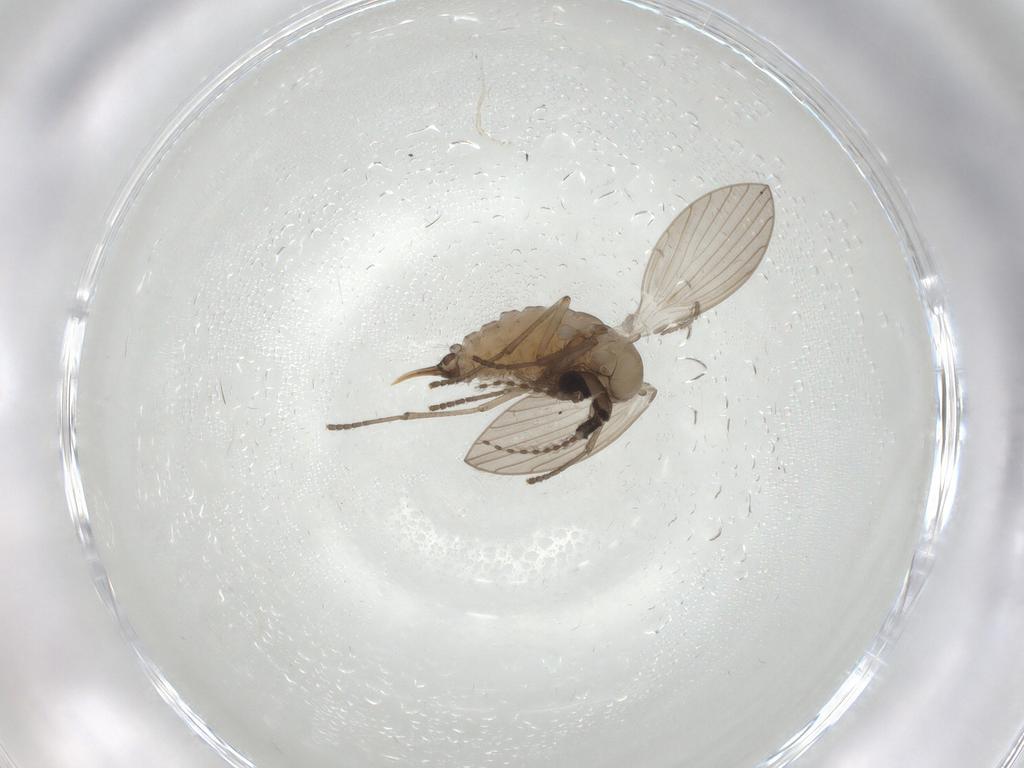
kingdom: Animalia
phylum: Arthropoda
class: Insecta
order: Diptera
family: Psychodidae
